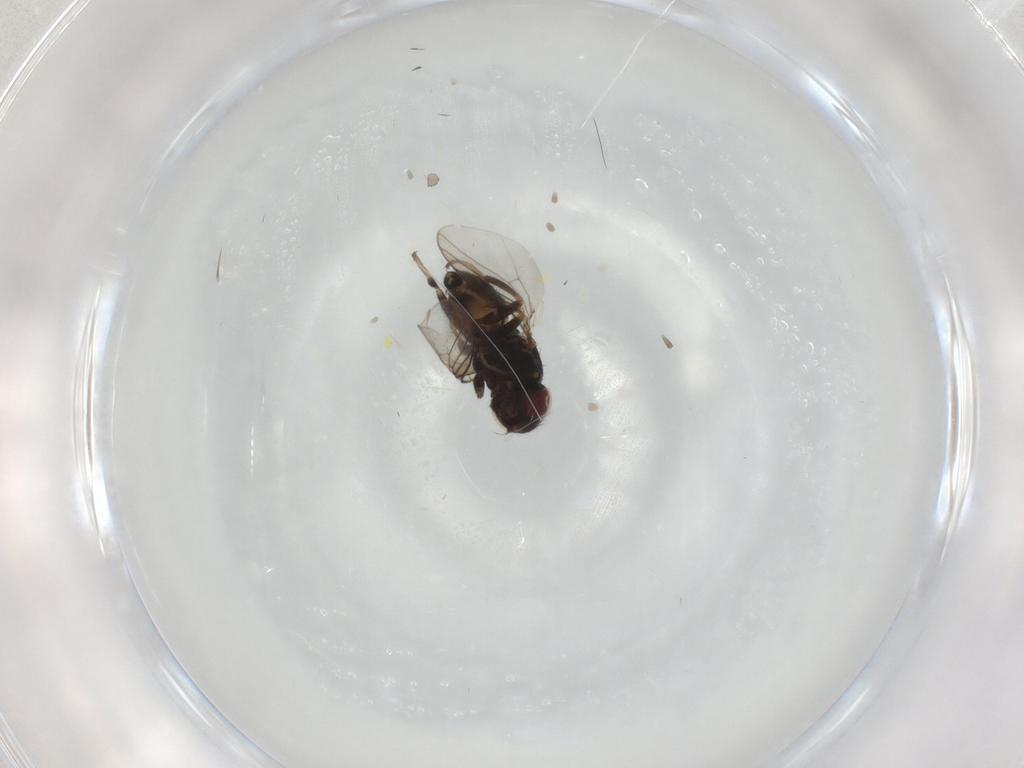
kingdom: Animalia
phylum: Arthropoda
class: Insecta
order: Diptera
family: Chloropidae
